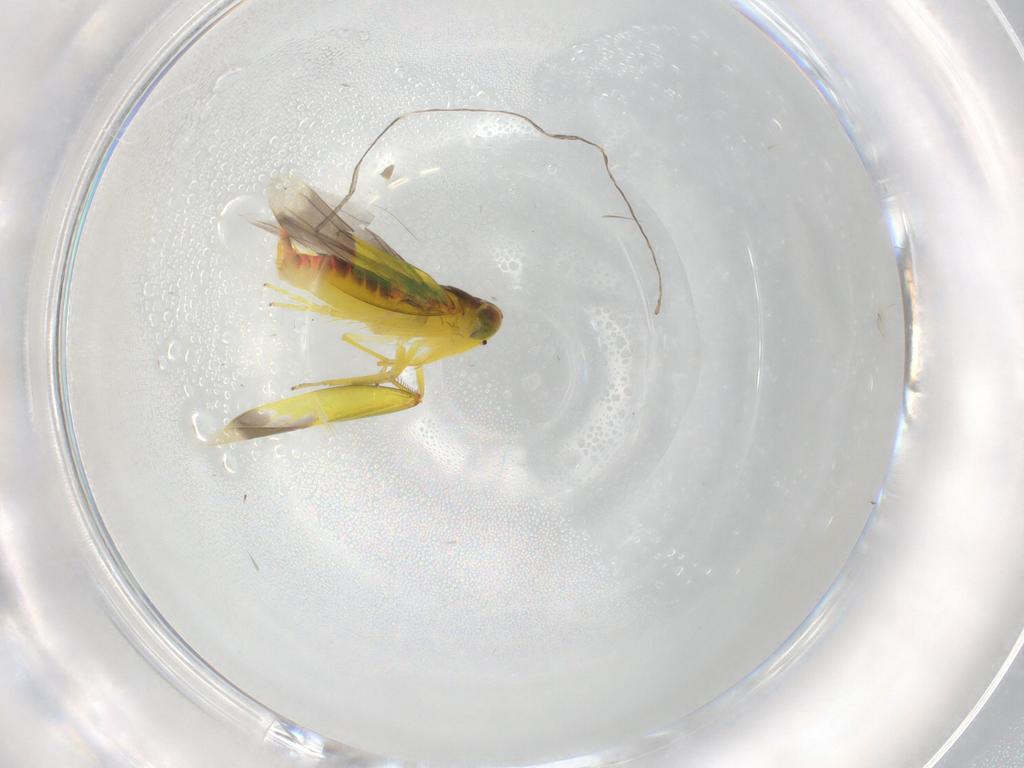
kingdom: Animalia
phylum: Arthropoda
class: Insecta
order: Hemiptera
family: Cicadellidae
